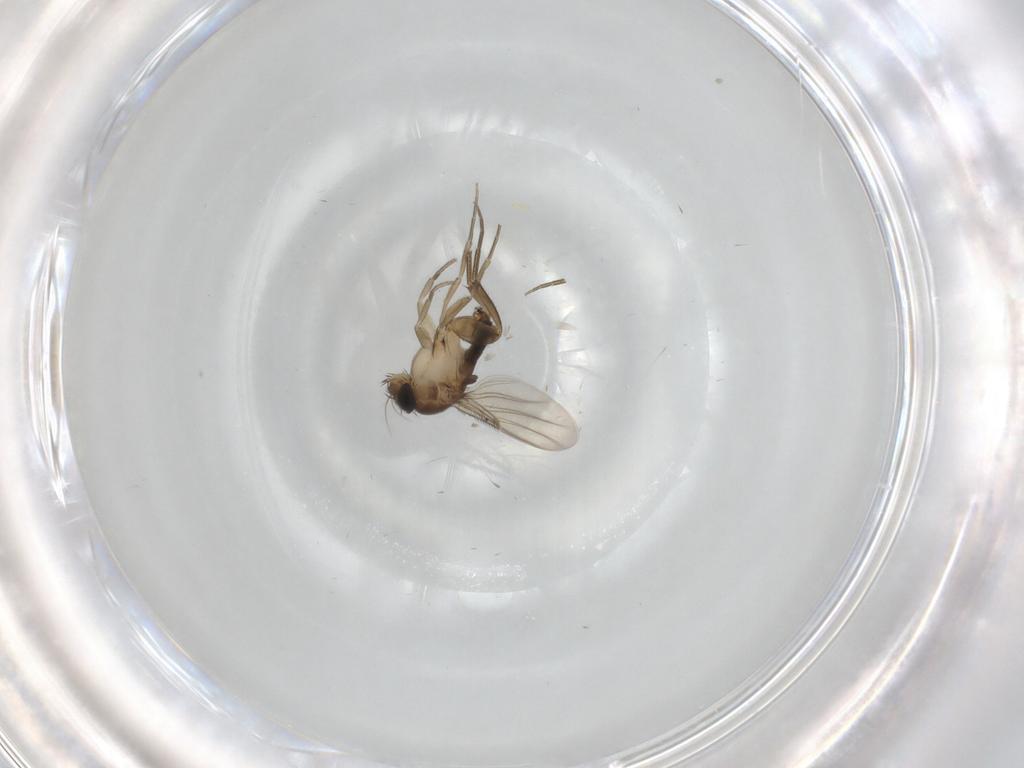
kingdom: Animalia
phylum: Arthropoda
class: Insecta
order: Diptera
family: Phoridae
